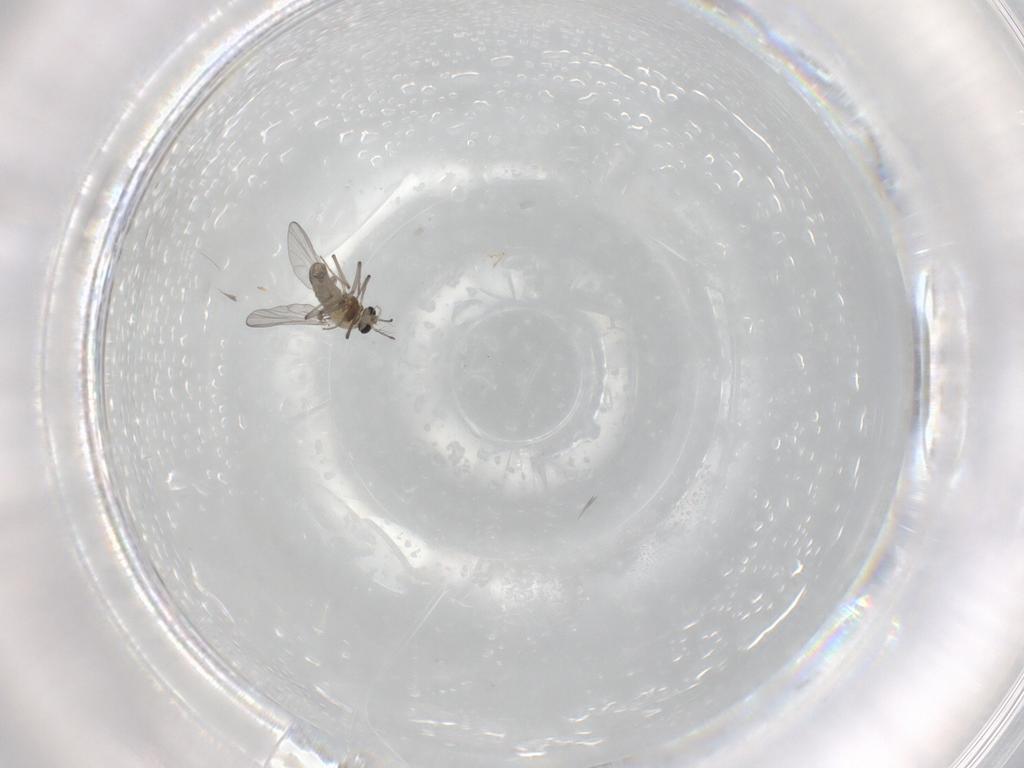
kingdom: Animalia
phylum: Arthropoda
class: Insecta
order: Diptera
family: Chironomidae
